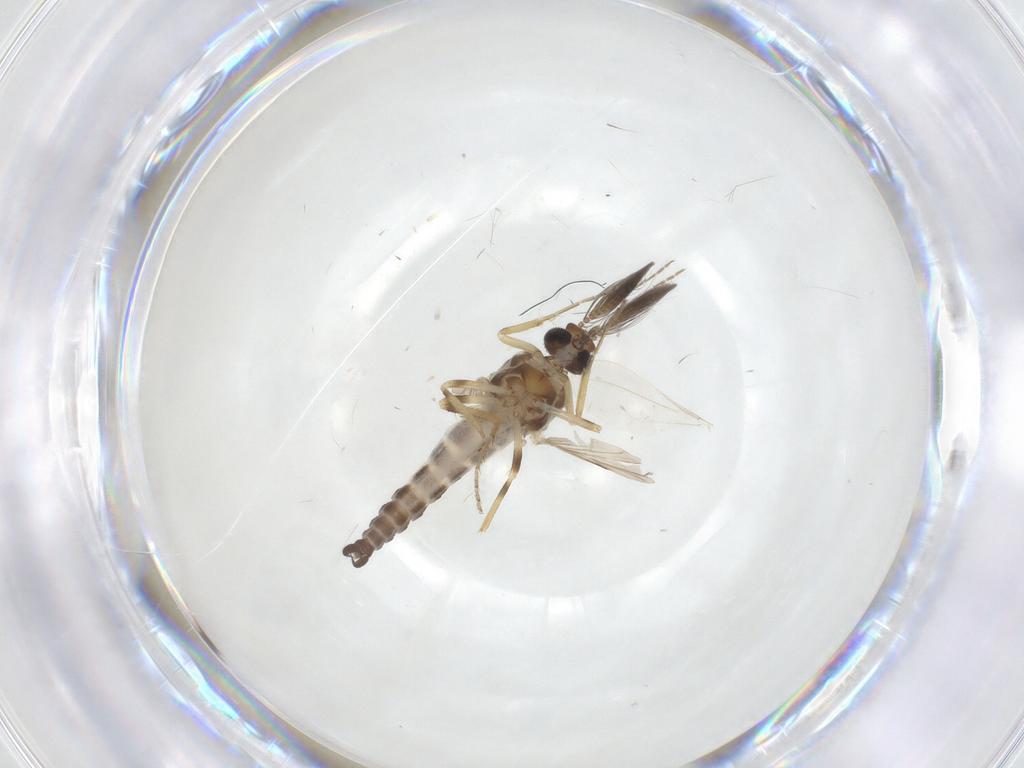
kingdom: Animalia
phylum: Arthropoda
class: Insecta
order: Diptera
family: Ceratopogonidae
